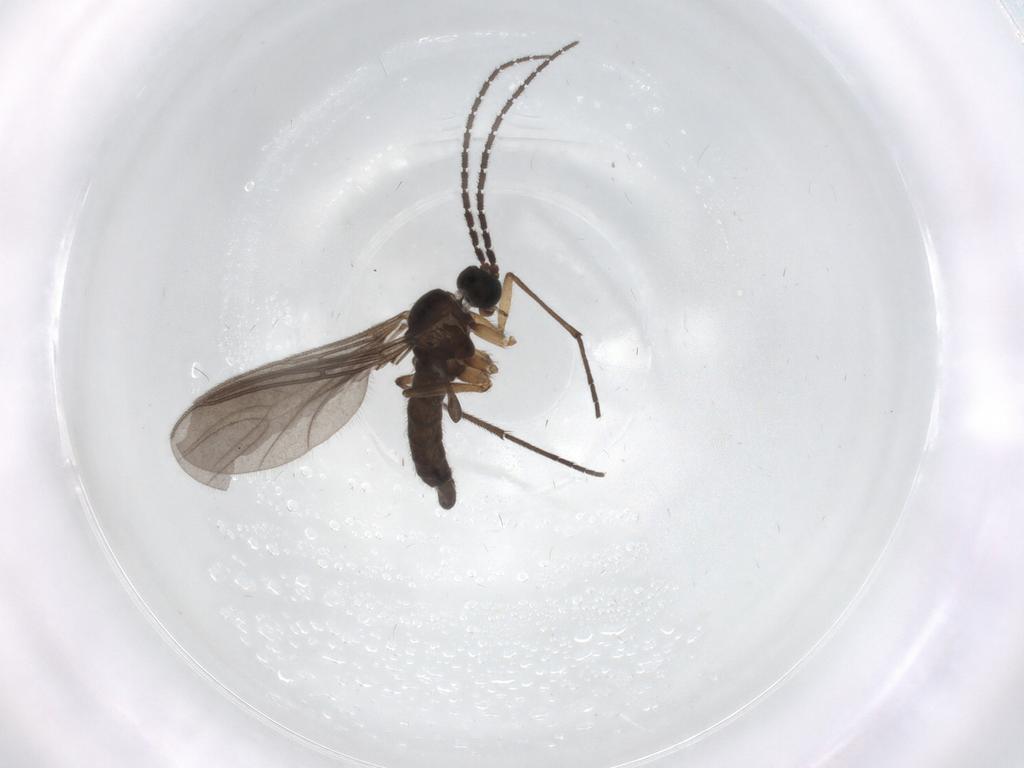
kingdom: Animalia
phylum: Arthropoda
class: Insecta
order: Diptera
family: Sciaridae
